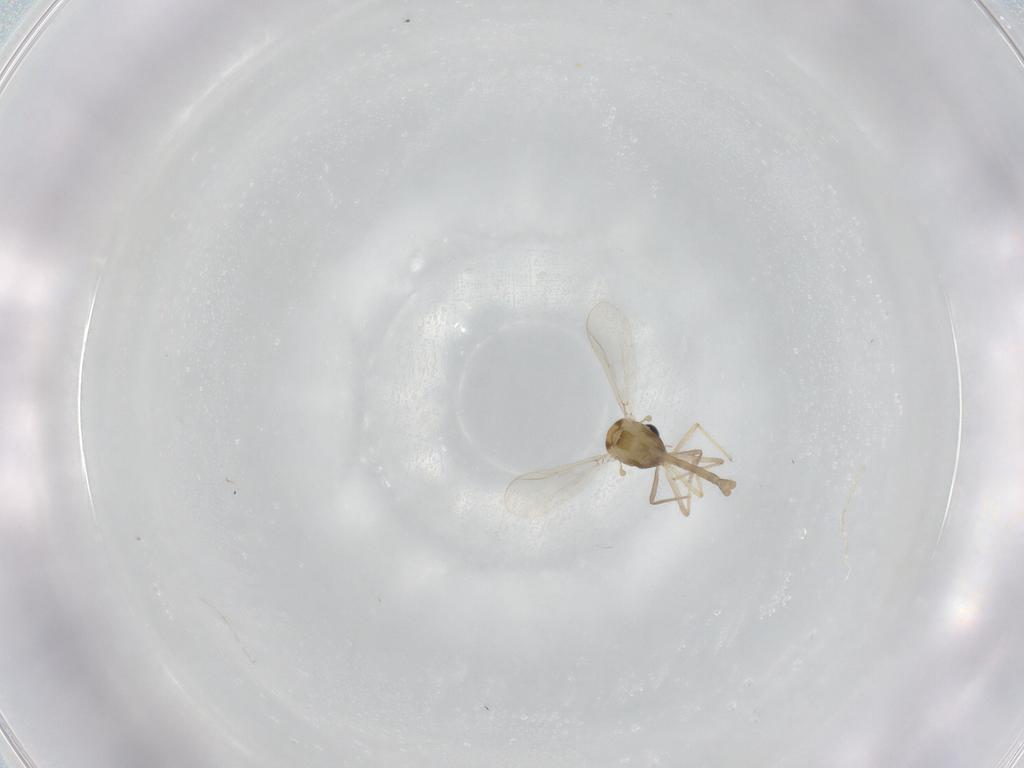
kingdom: Animalia
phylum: Arthropoda
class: Insecta
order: Diptera
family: Chironomidae
